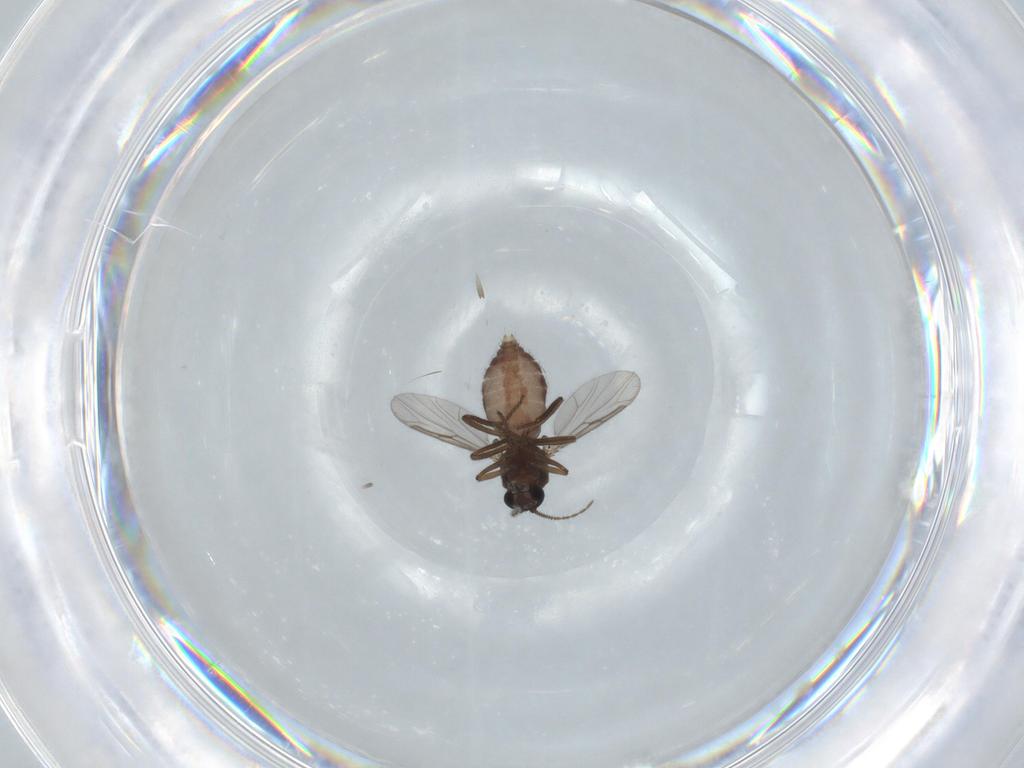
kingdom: Animalia
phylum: Arthropoda
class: Insecta
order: Diptera
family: Ceratopogonidae
